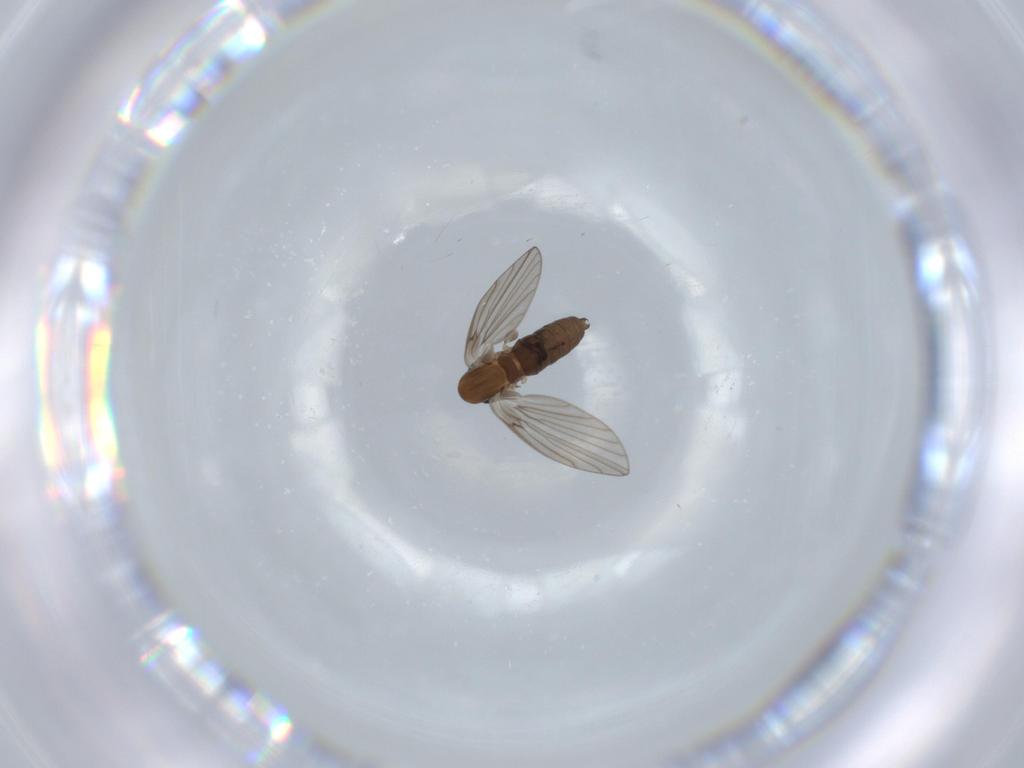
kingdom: Animalia
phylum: Arthropoda
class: Insecta
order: Diptera
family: Psychodidae
